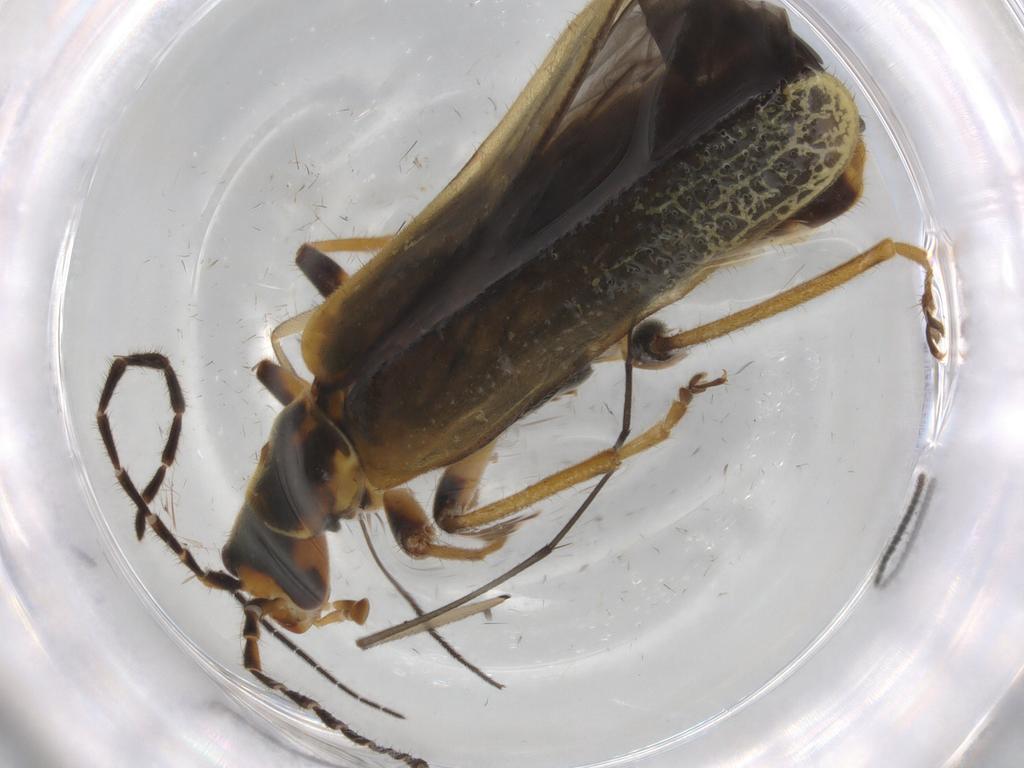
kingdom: Animalia
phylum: Arthropoda
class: Insecta
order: Coleoptera
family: Cantharidae
